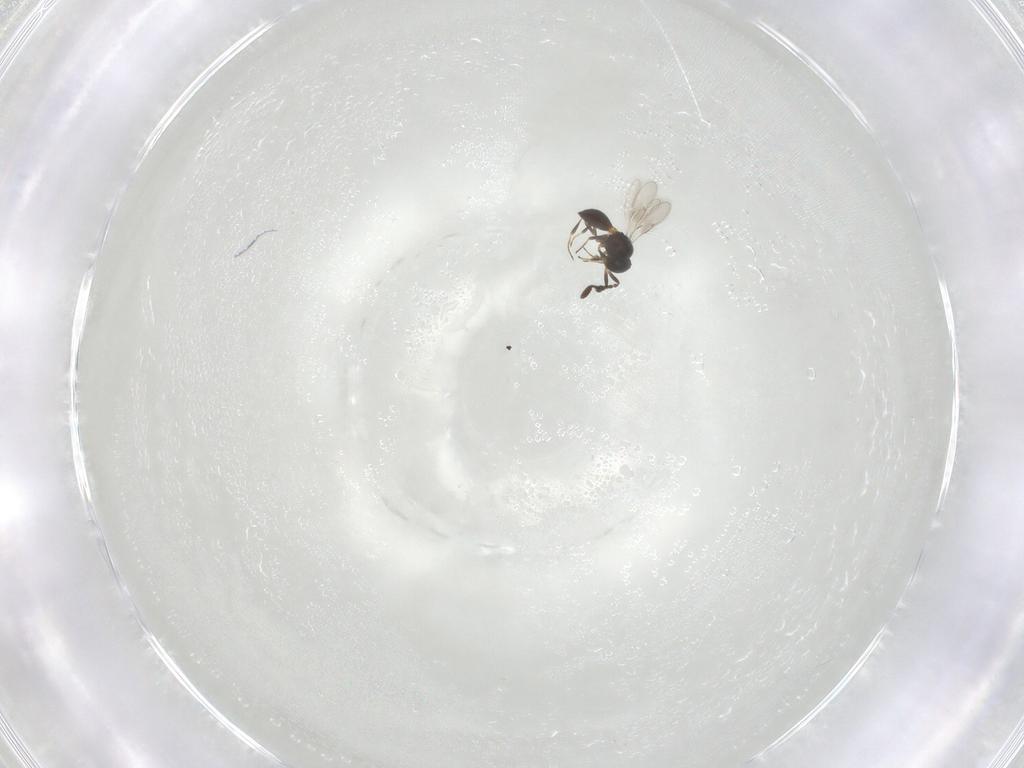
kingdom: Animalia
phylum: Arthropoda
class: Insecta
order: Hymenoptera
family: Scelionidae
